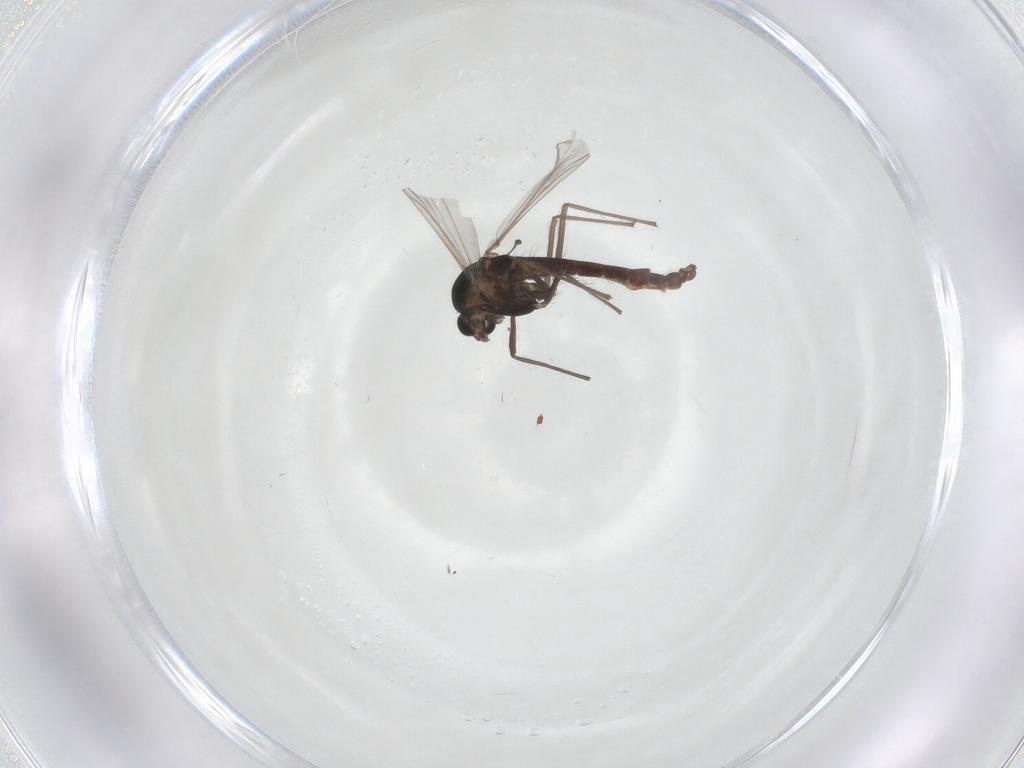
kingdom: Animalia
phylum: Arthropoda
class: Insecta
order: Diptera
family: Chironomidae
